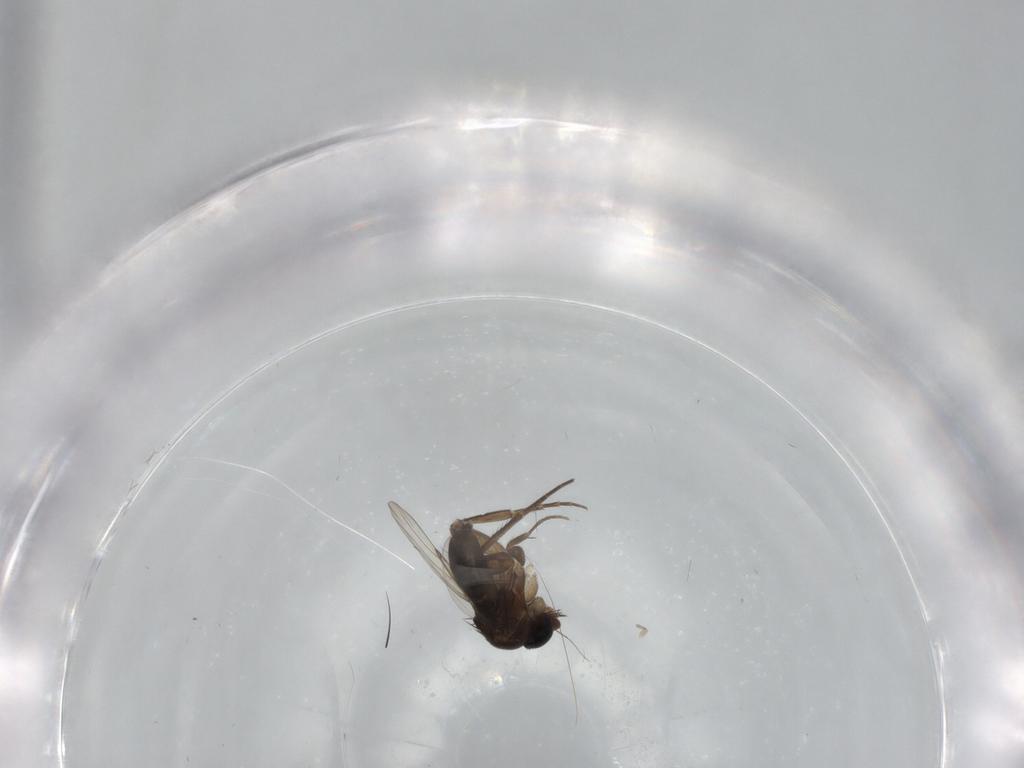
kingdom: Animalia
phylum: Arthropoda
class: Insecta
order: Diptera
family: Phoridae
